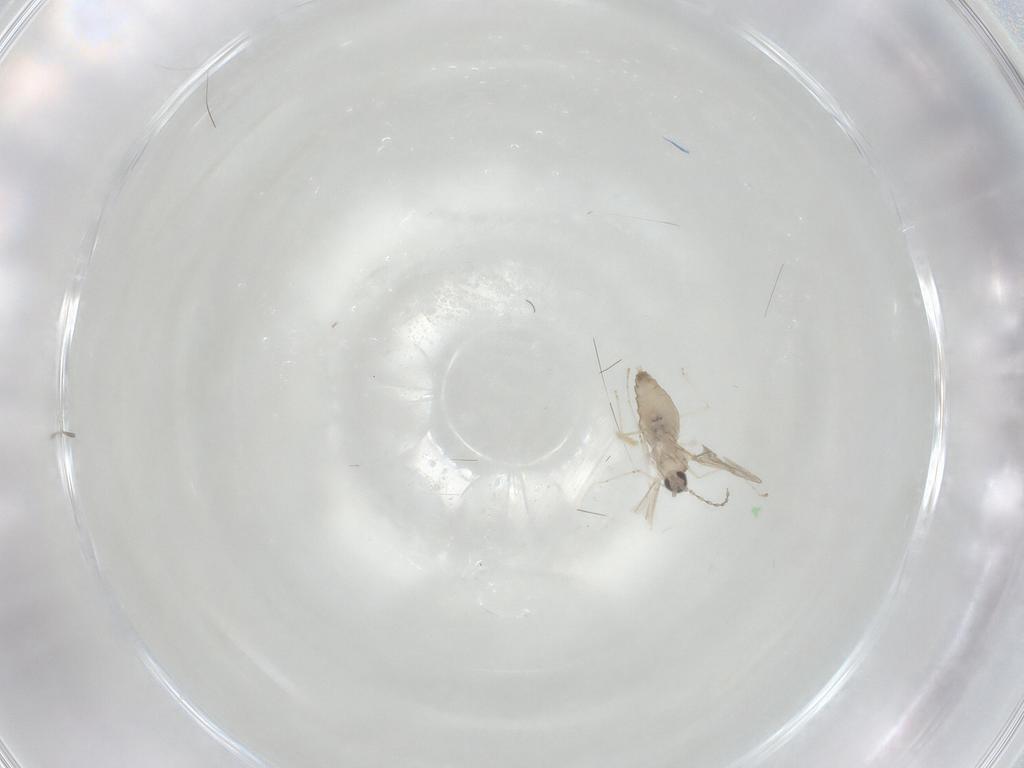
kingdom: Animalia
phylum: Arthropoda
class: Insecta
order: Diptera
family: Cecidomyiidae
